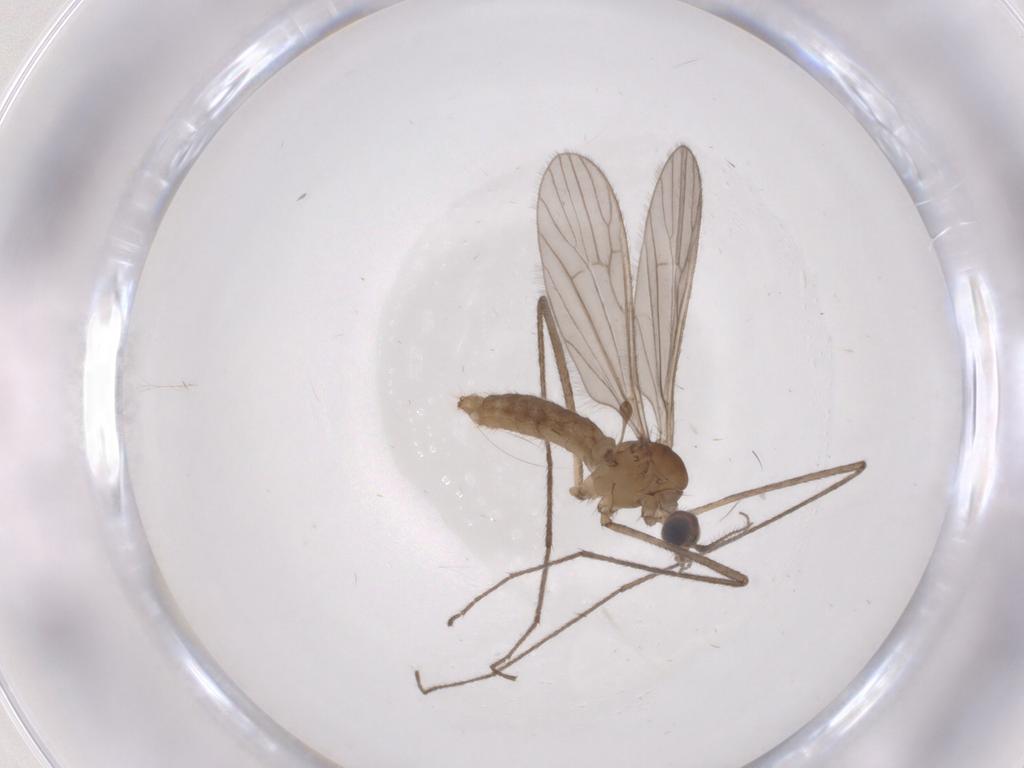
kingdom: Animalia
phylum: Arthropoda
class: Insecta
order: Diptera
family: Limoniidae
